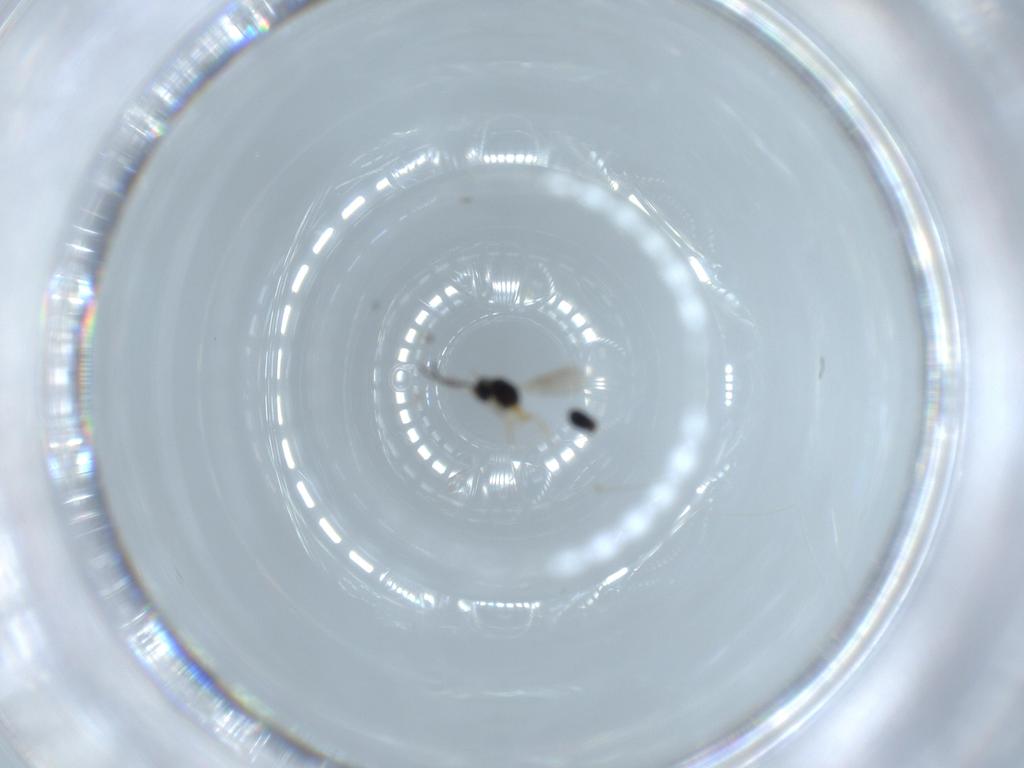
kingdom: Animalia
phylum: Arthropoda
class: Insecta
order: Hymenoptera
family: Scelionidae
